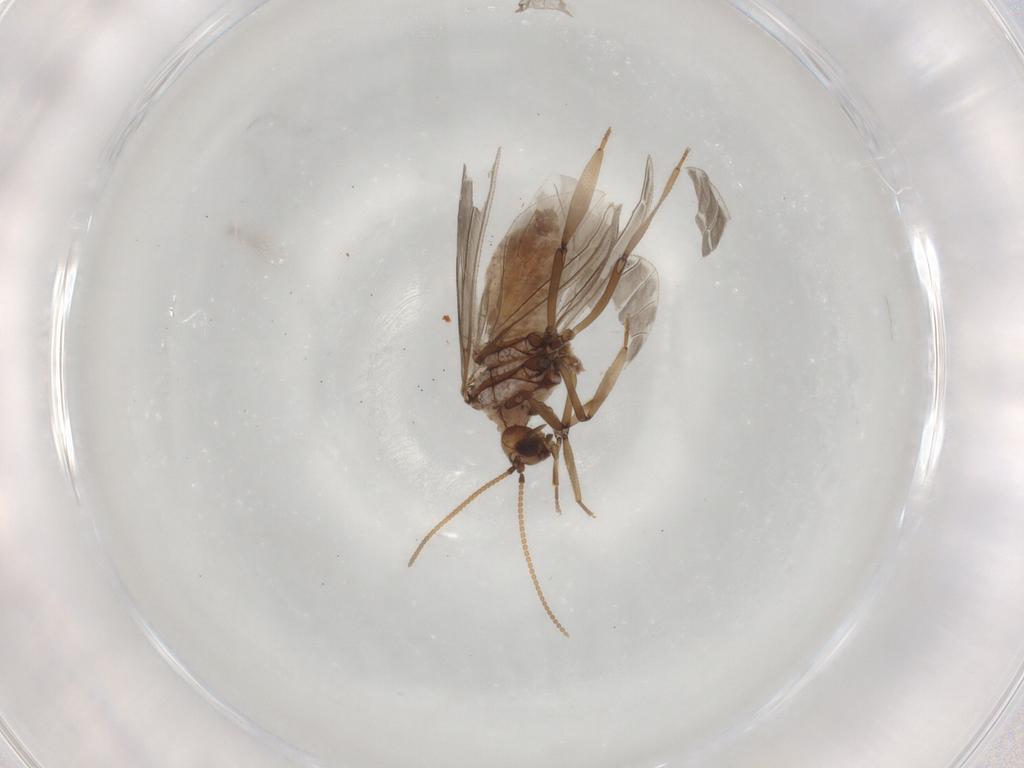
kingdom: Animalia
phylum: Arthropoda
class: Insecta
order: Neuroptera
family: Coniopterygidae
